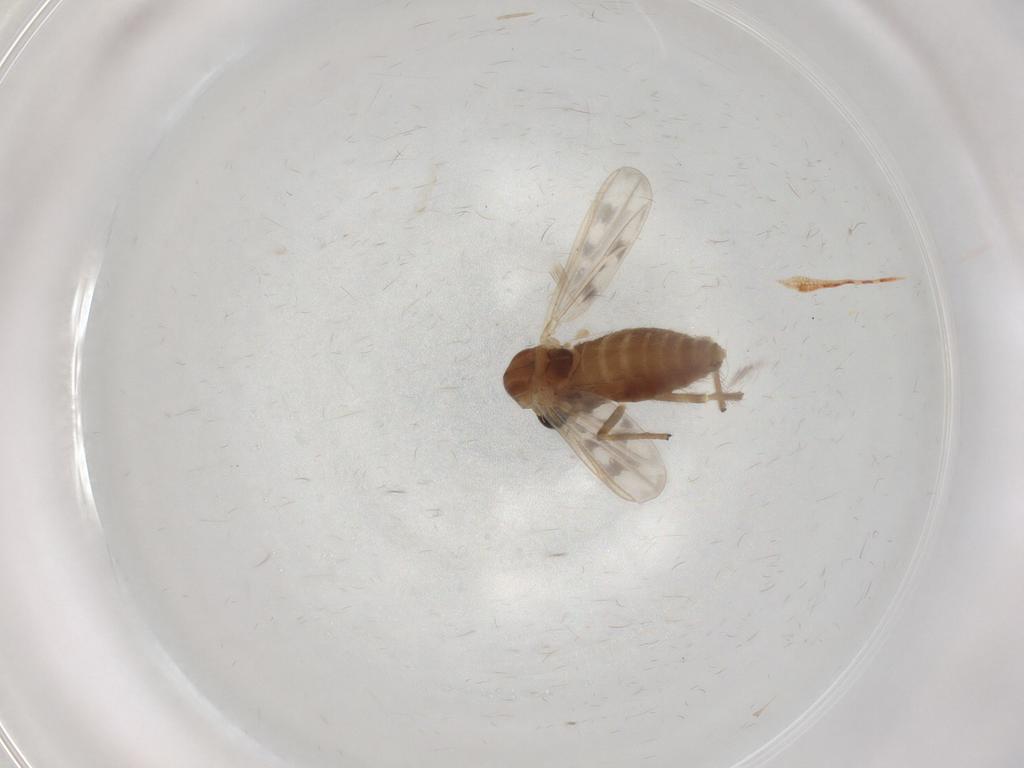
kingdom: Animalia
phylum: Arthropoda
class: Insecta
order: Diptera
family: Chironomidae
